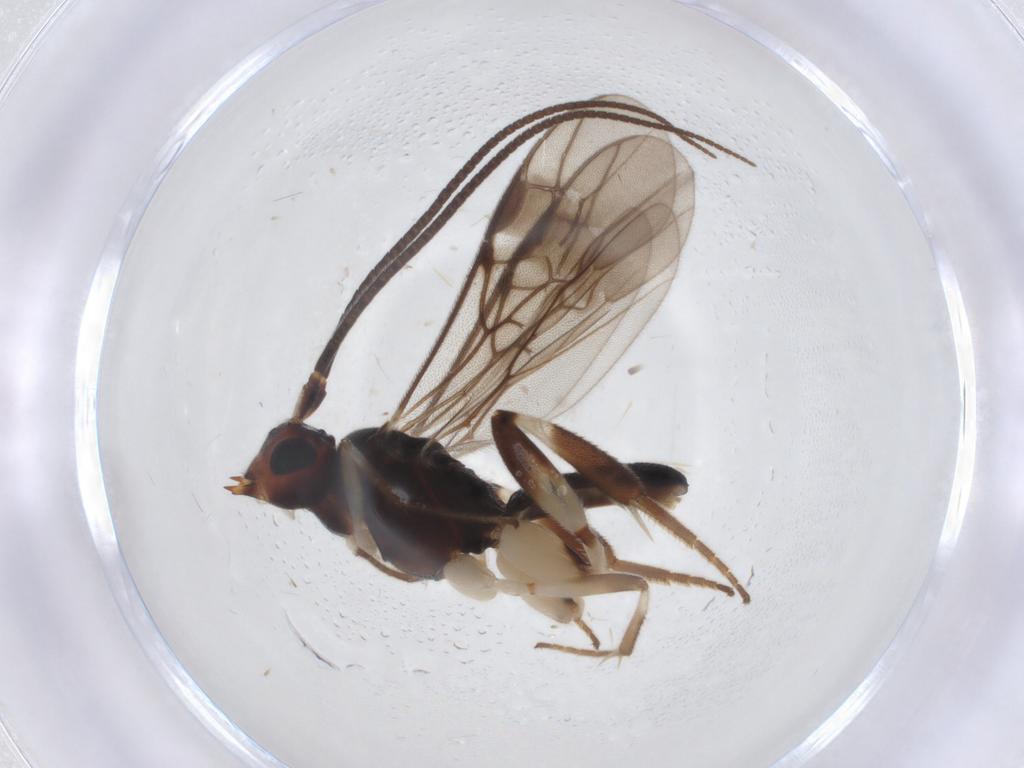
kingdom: Animalia
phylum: Arthropoda
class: Insecta
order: Hymenoptera
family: Braconidae
